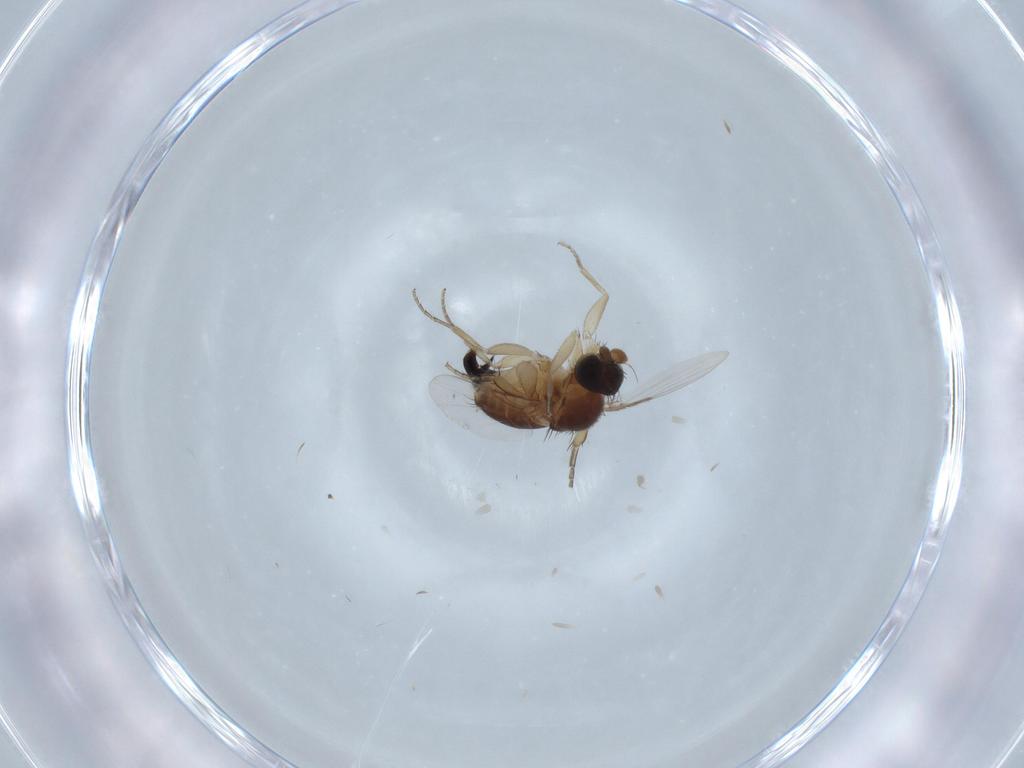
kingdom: Animalia
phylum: Arthropoda
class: Insecta
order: Diptera
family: Phoridae
